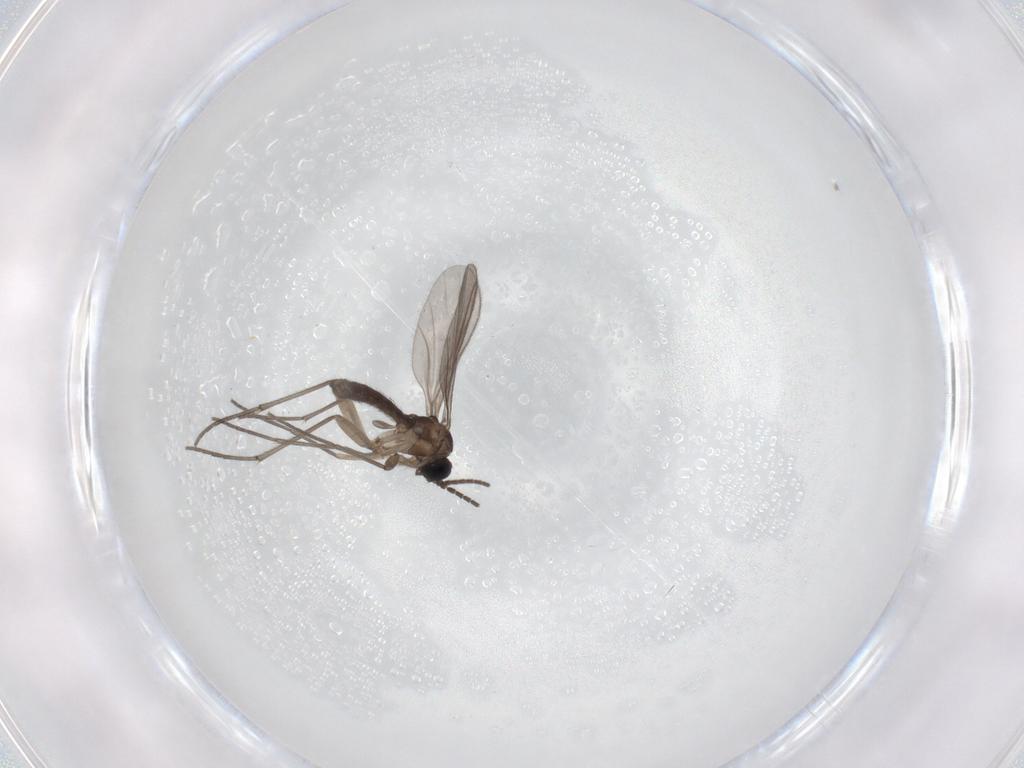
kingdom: Animalia
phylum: Arthropoda
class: Insecta
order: Diptera
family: Sciaridae
